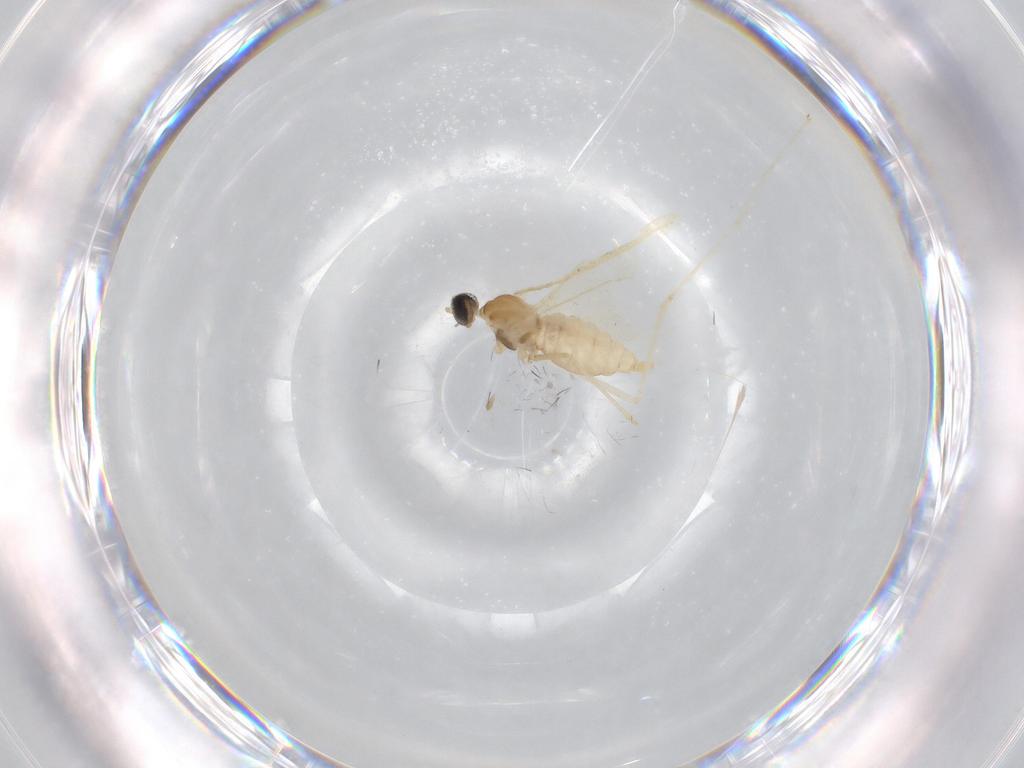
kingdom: Animalia
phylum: Arthropoda
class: Insecta
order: Diptera
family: Cecidomyiidae
